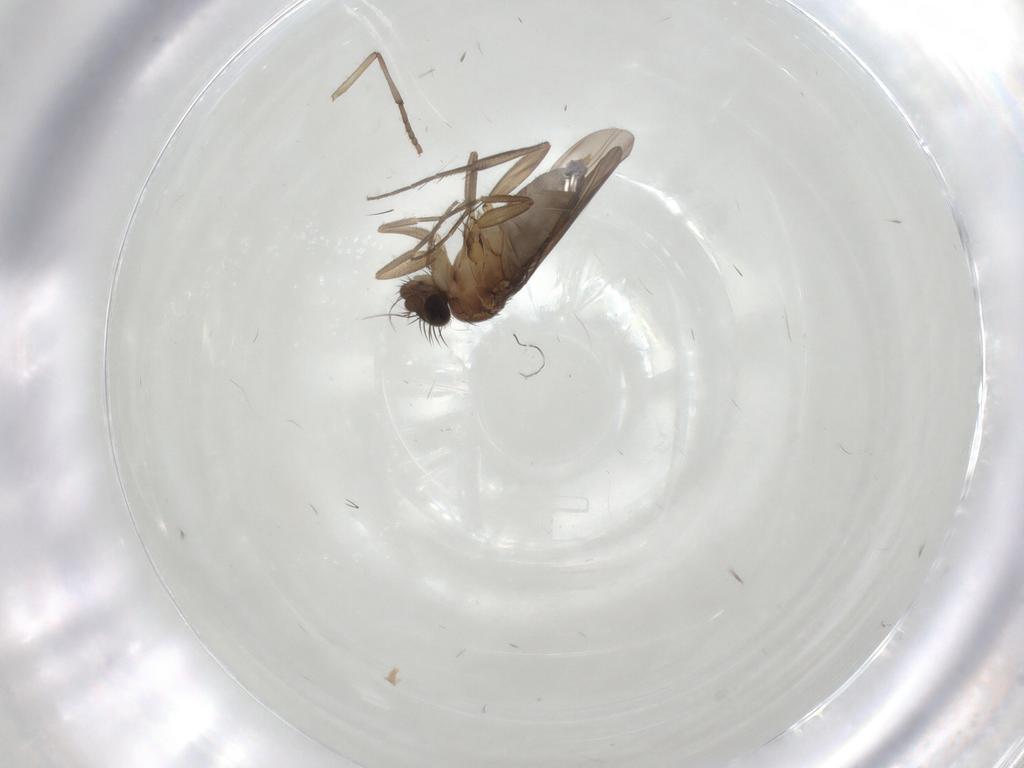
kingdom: Animalia
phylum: Arthropoda
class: Insecta
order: Diptera
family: Phoridae
